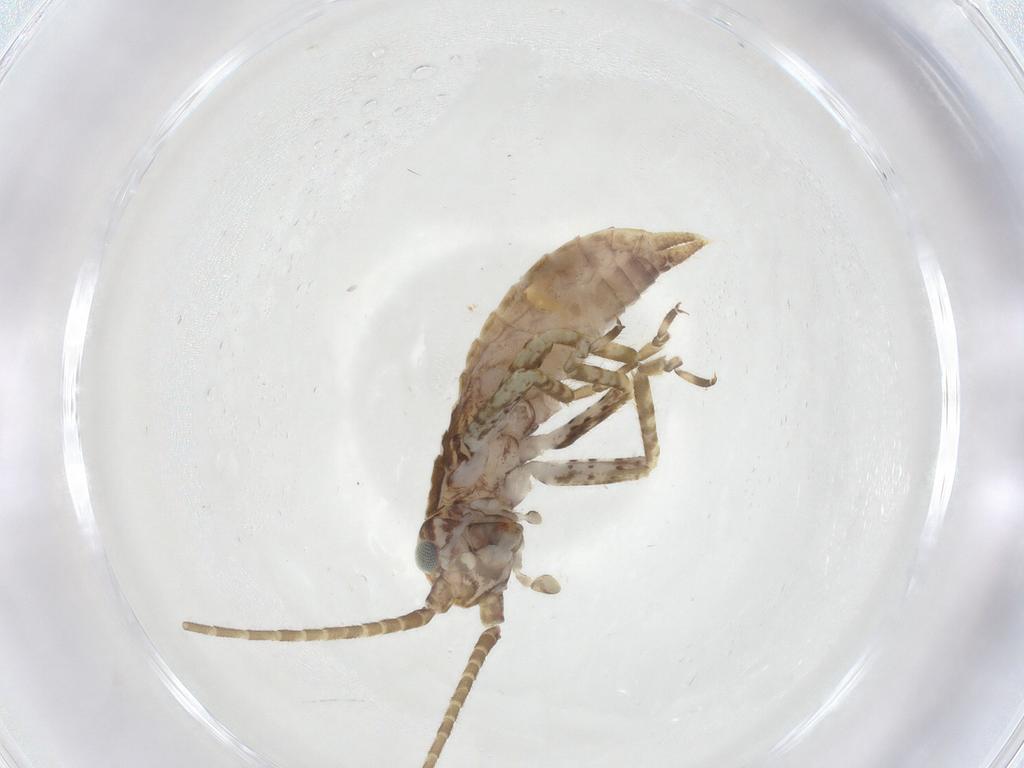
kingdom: Animalia
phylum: Arthropoda
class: Insecta
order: Orthoptera
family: Gryllidae
